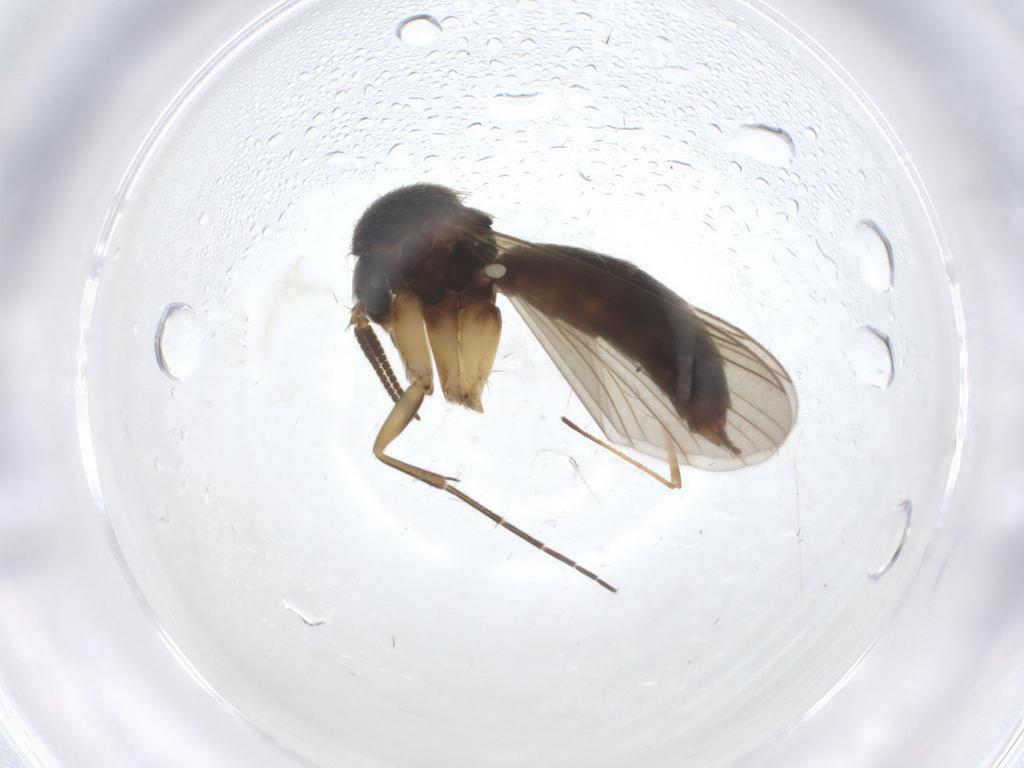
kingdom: Animalia
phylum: Arthropoda
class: Insecta
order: Diptera
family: Mycetophilidae
